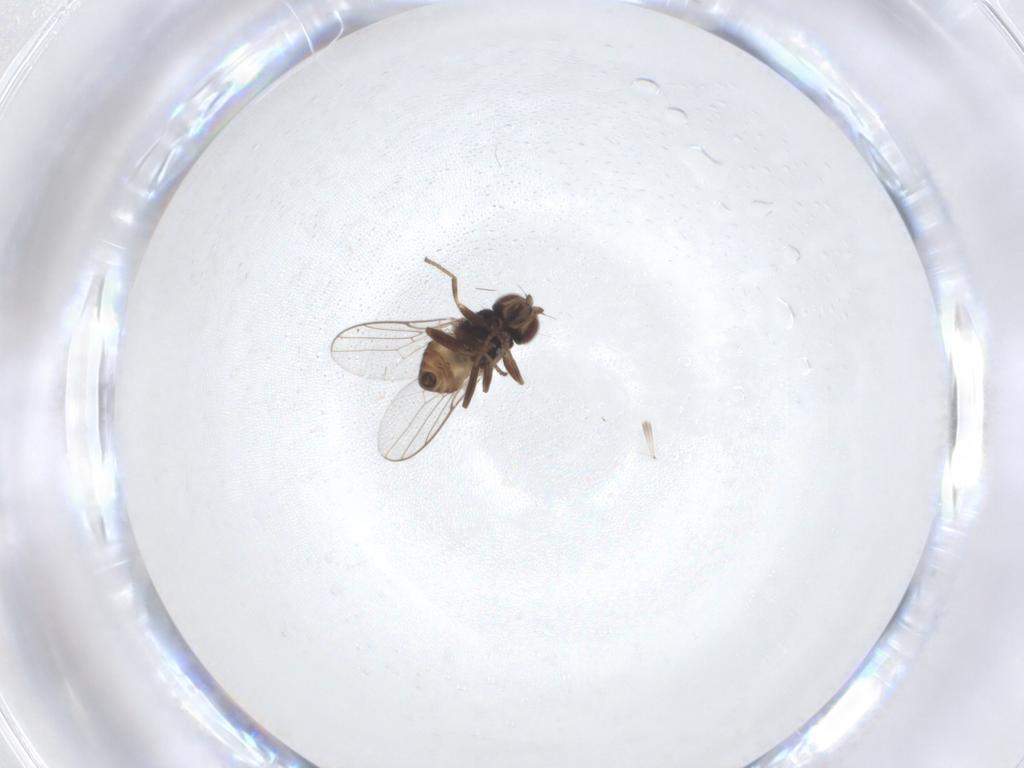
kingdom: Animalia
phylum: Arthropoda
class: Insecta
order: Diptera
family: Chloropidae
